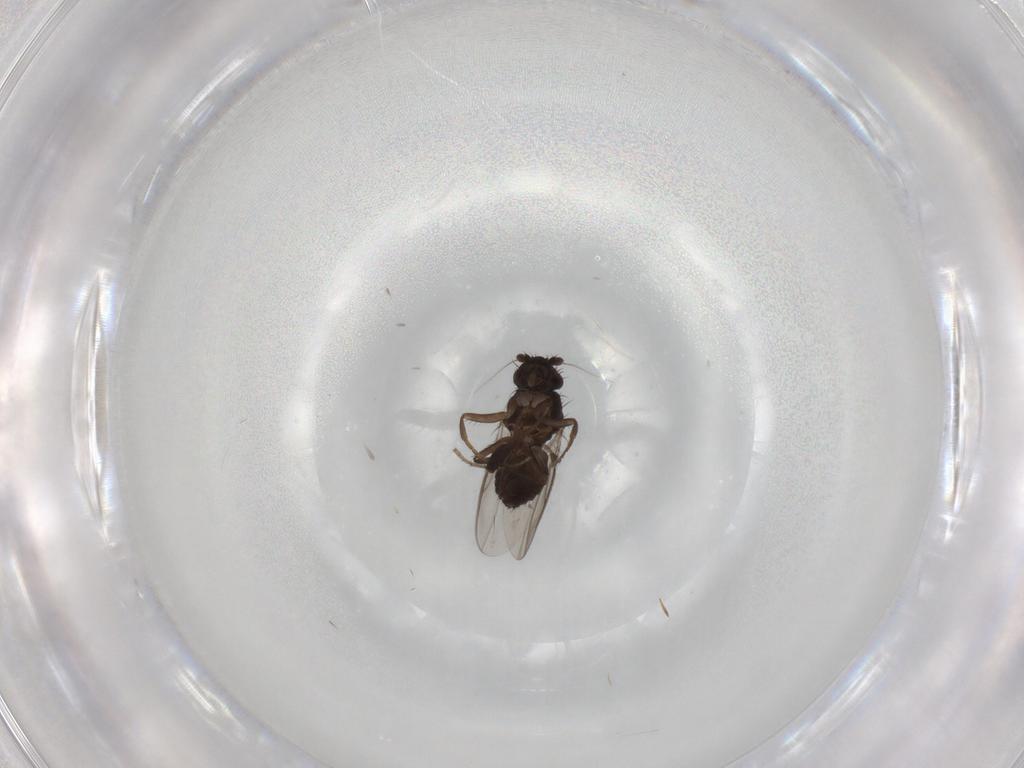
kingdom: Animalia
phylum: Arthropoda
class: Insecta
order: Diptera
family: Sphaeroceridae
